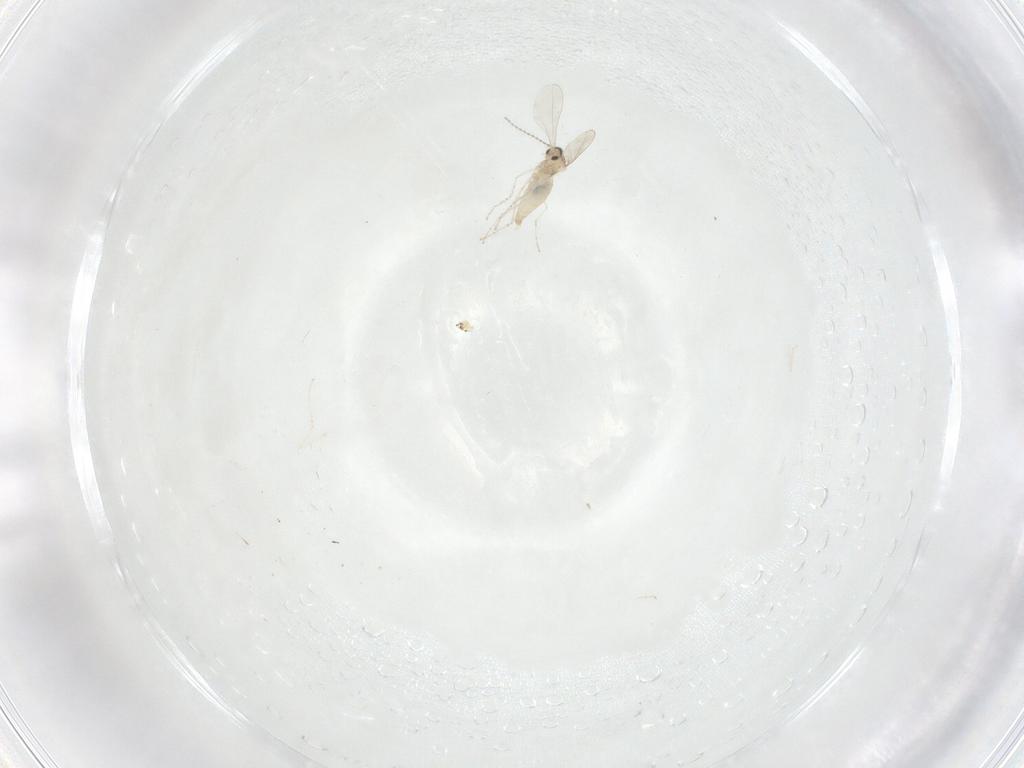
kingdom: Animalia
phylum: Arthropoda
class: Insecta
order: Diptera
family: Cecidomyiidae
